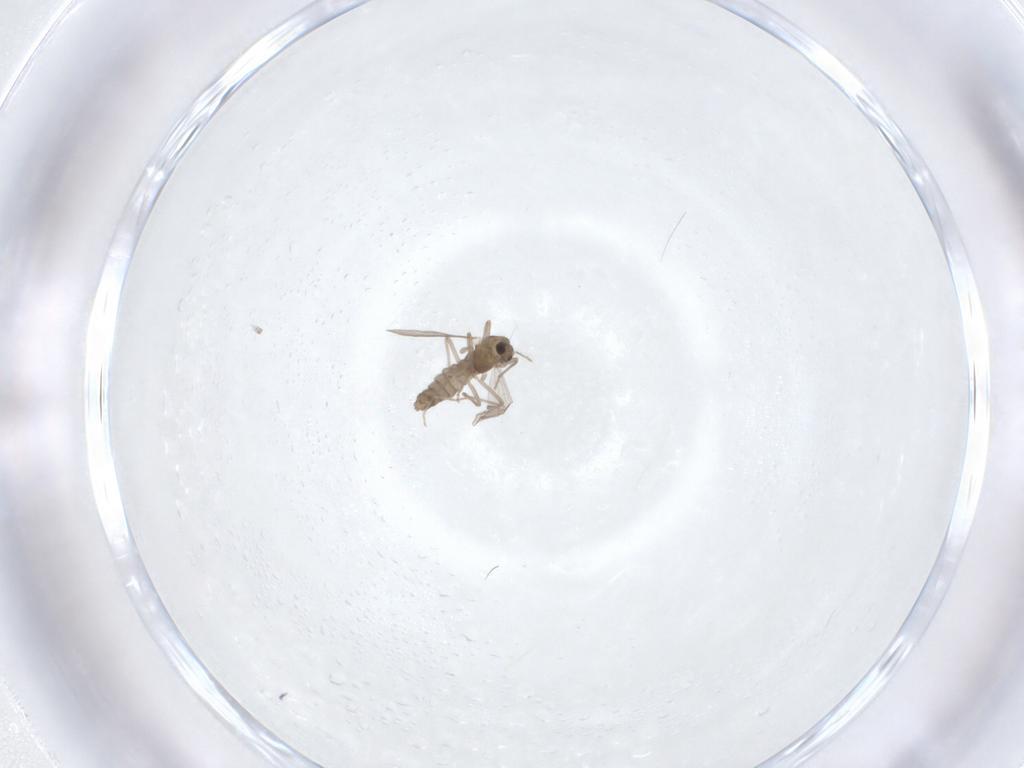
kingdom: Animalia
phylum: Arthropoda
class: Insecta
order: Diptera
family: Chironomidae
